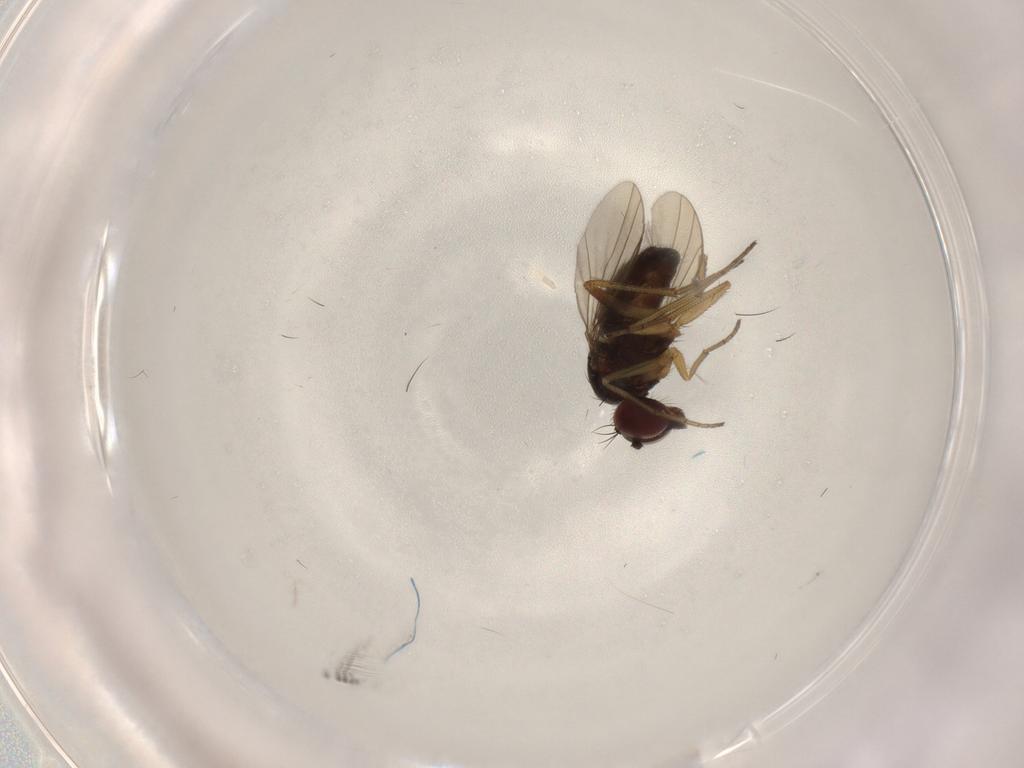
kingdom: Animalia
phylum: Arthropoda
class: Insecta
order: Diptera
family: Dolichopodidae
